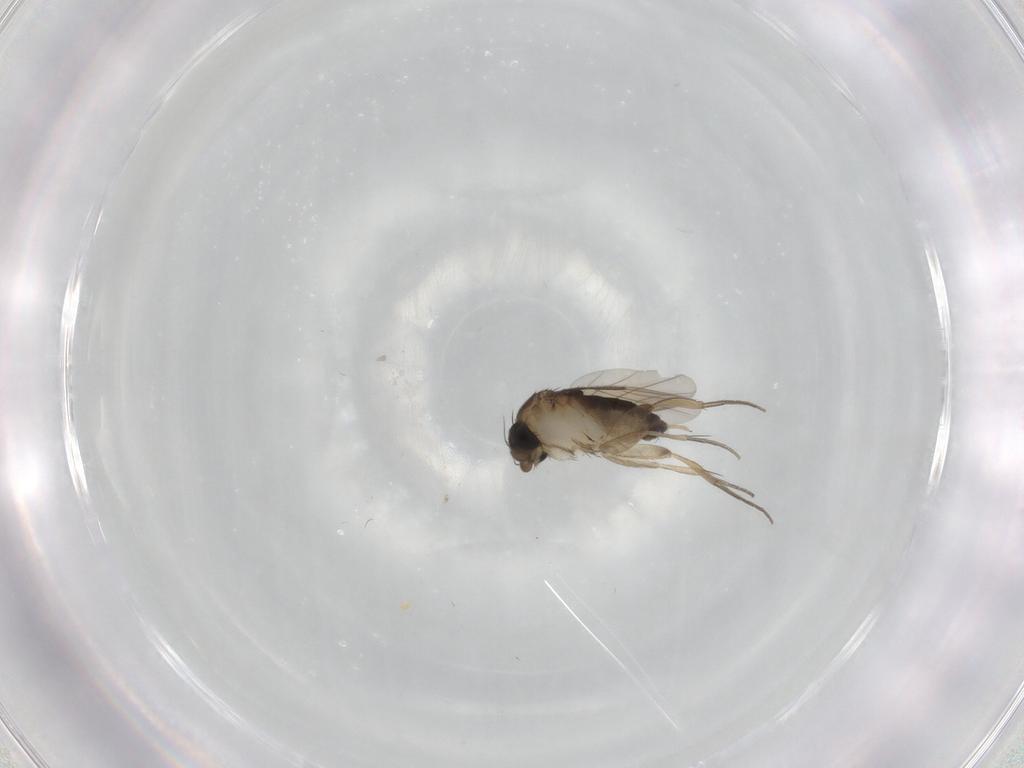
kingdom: Animalia
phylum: Arthropoda
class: Insecta
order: Diptera
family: Phoridae
